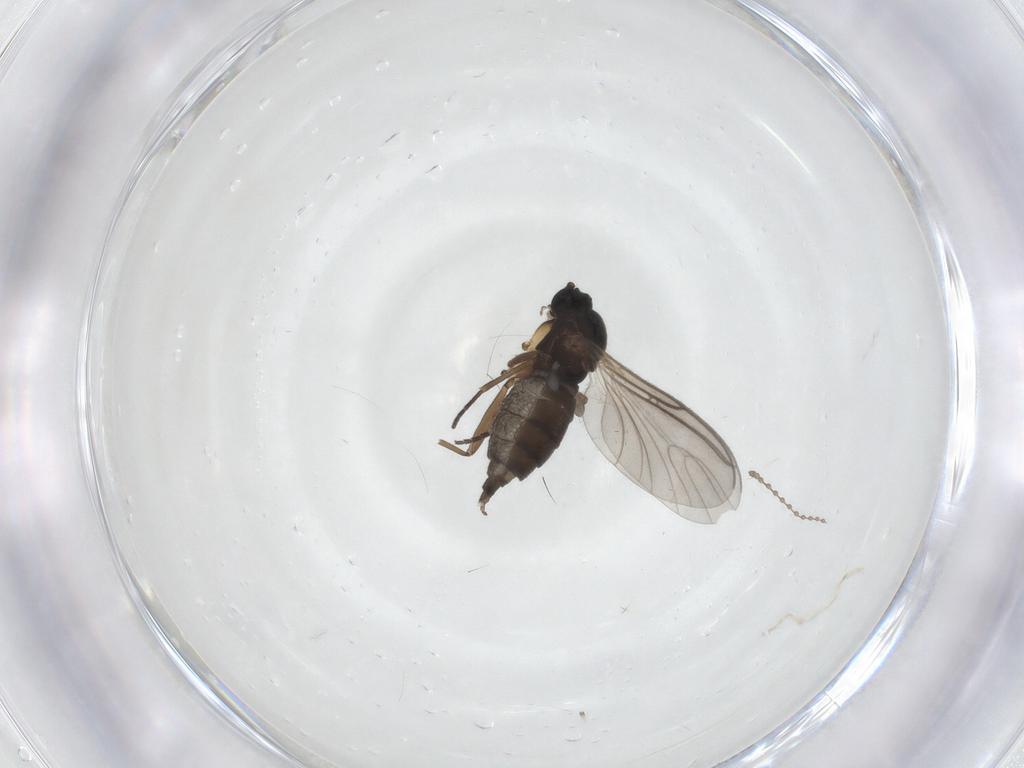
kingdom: Animalia
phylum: Arthropoda
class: Insecta
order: Diptera
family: Sciaridae
